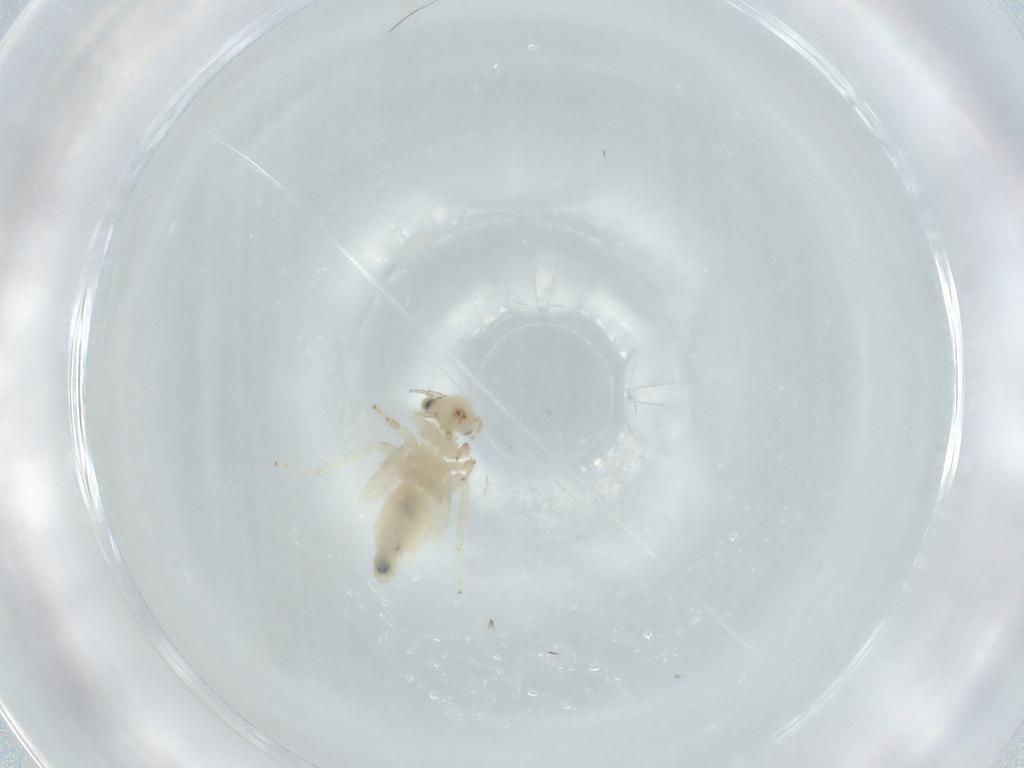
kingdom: Animalia
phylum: Arthropoda
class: Insecta
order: Psocodea
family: Lepidopsocidae
